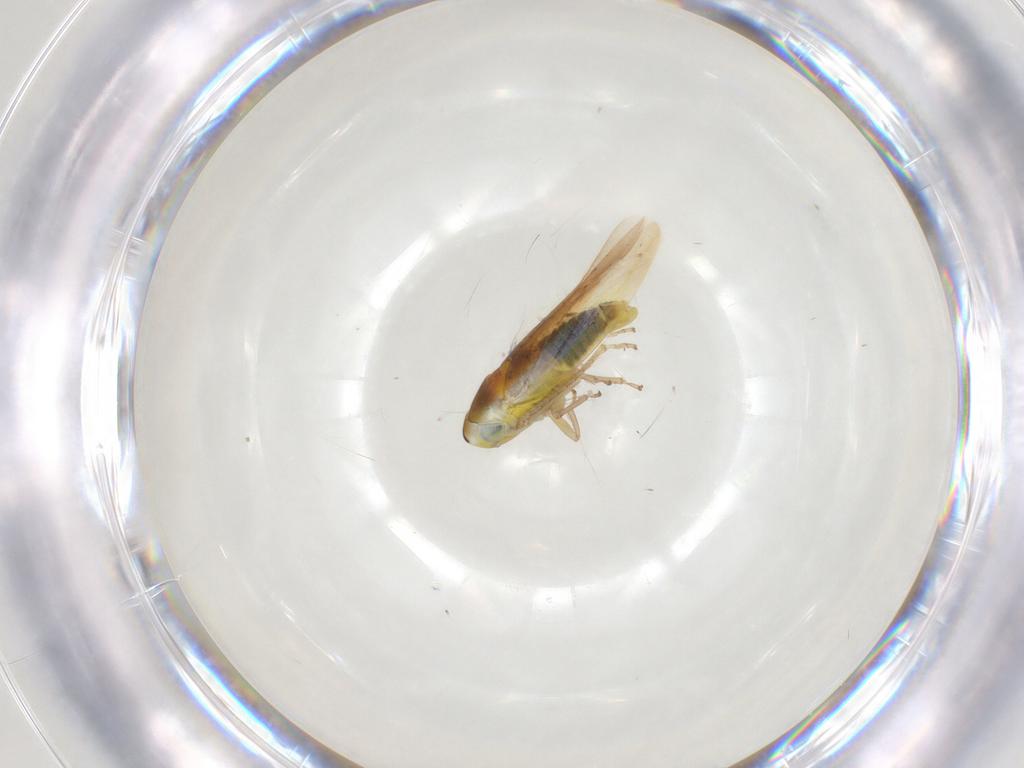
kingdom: Animalia
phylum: Arthropoda
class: Insecta
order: Hemiptera
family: Cicadellidae
